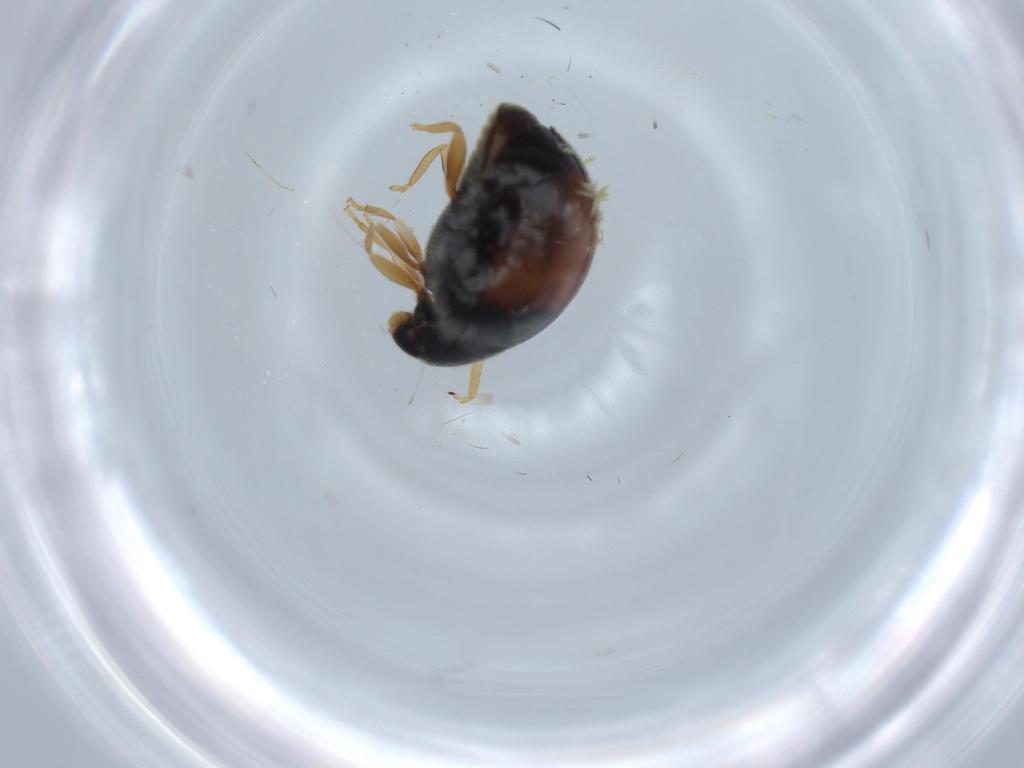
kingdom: Animalia
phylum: Arthropoda
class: Insecta
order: Coleoptera
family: Coccinellidae
